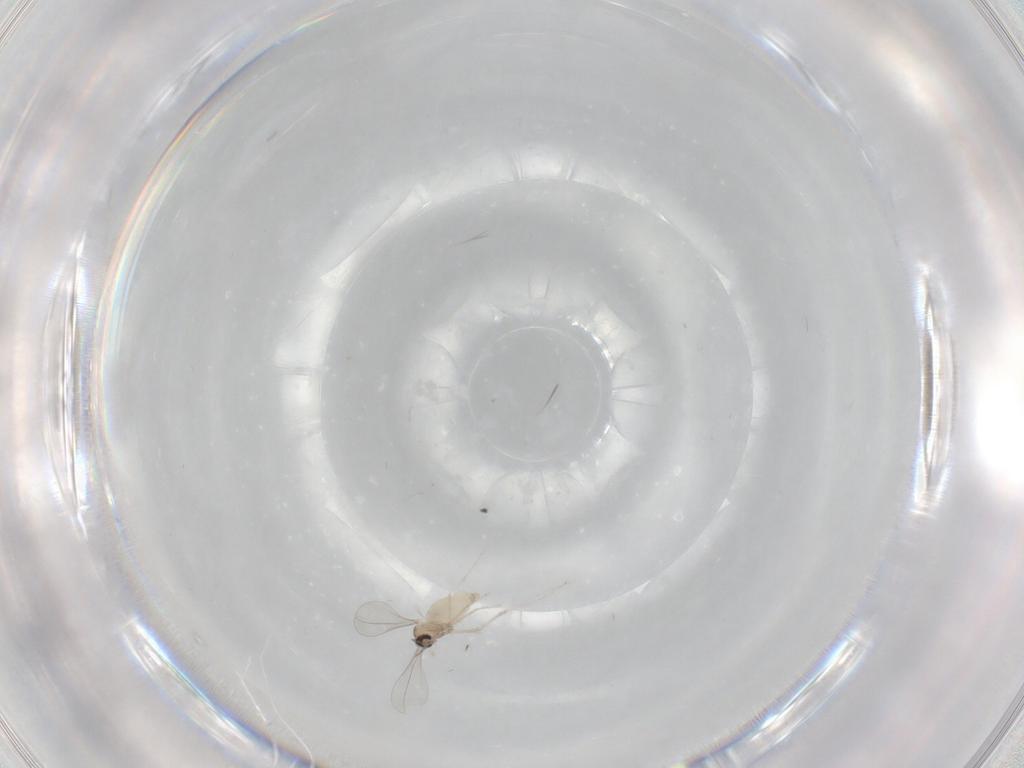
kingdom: Animalia
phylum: Arthropoda
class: Insecta
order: Diptera
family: Cecidomyiidae
